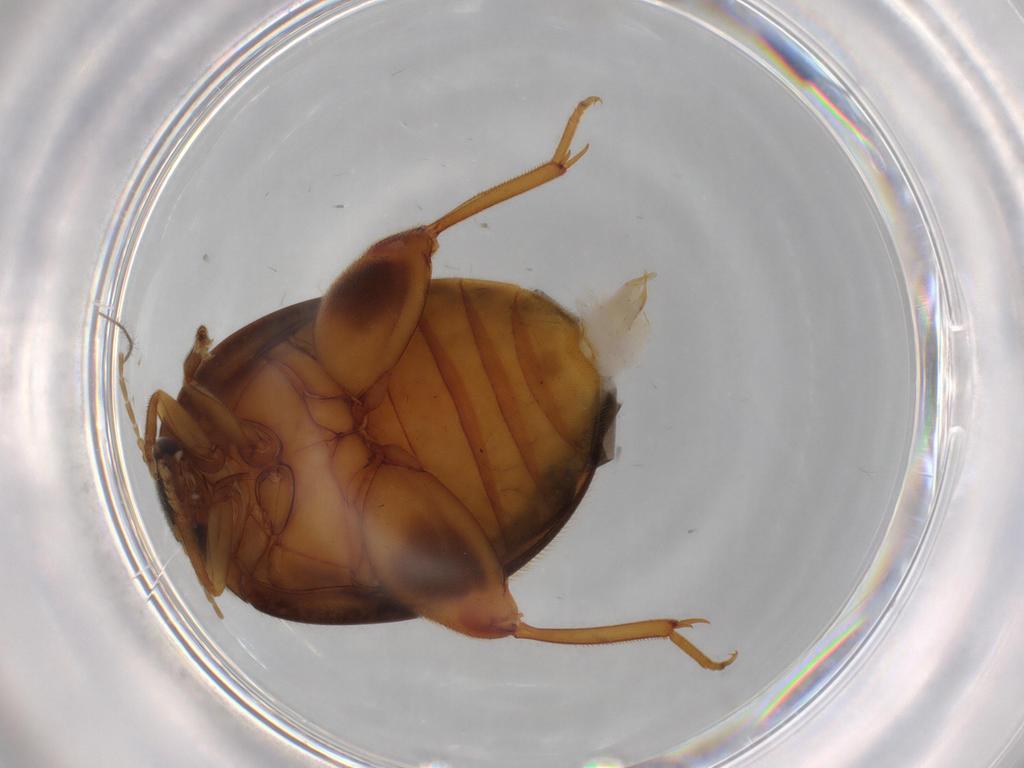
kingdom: Animalia
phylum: Arthropoda
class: Insecta
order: Coleoptera
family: Scirtidae
